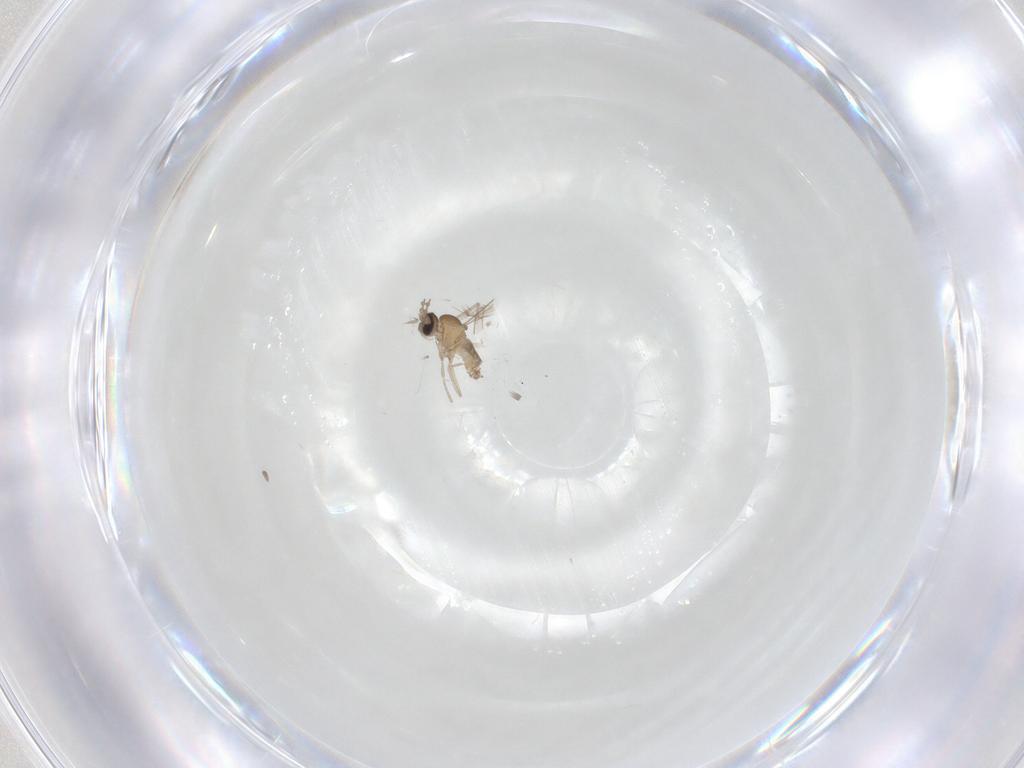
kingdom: Animalia
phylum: Arthropoda
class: Insecta
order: Diptera
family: Cecidomyiidae
